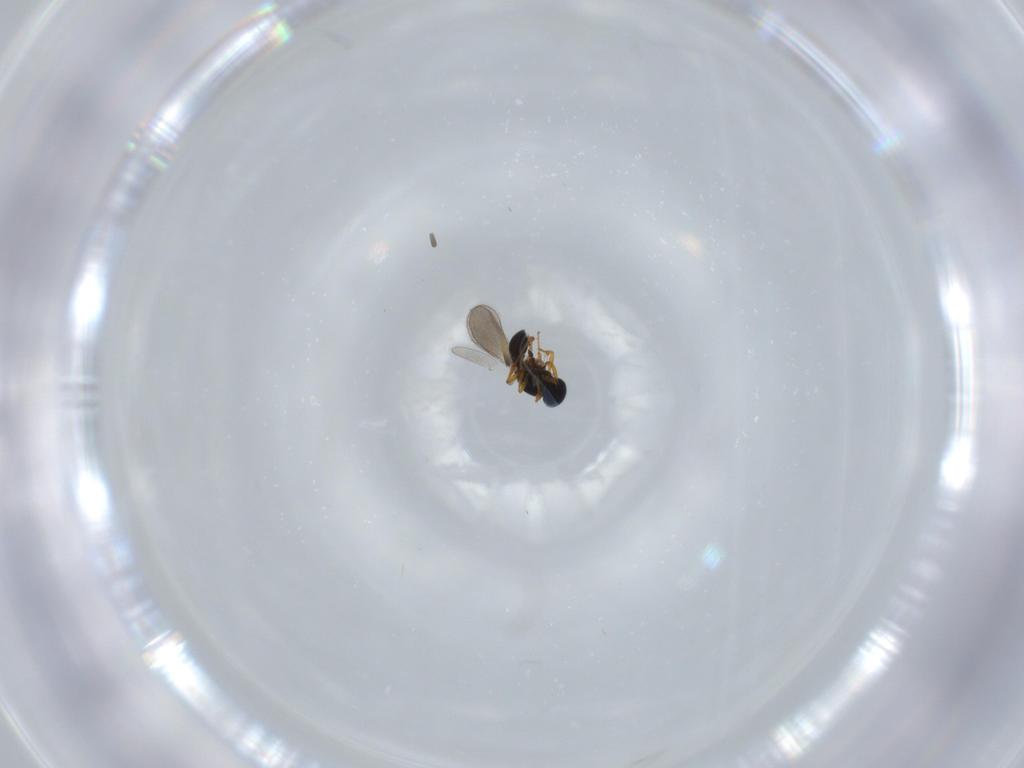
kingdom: Animalia
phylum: Arthropoda
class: Insecta
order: Hymenoptera
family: Platygastridae
